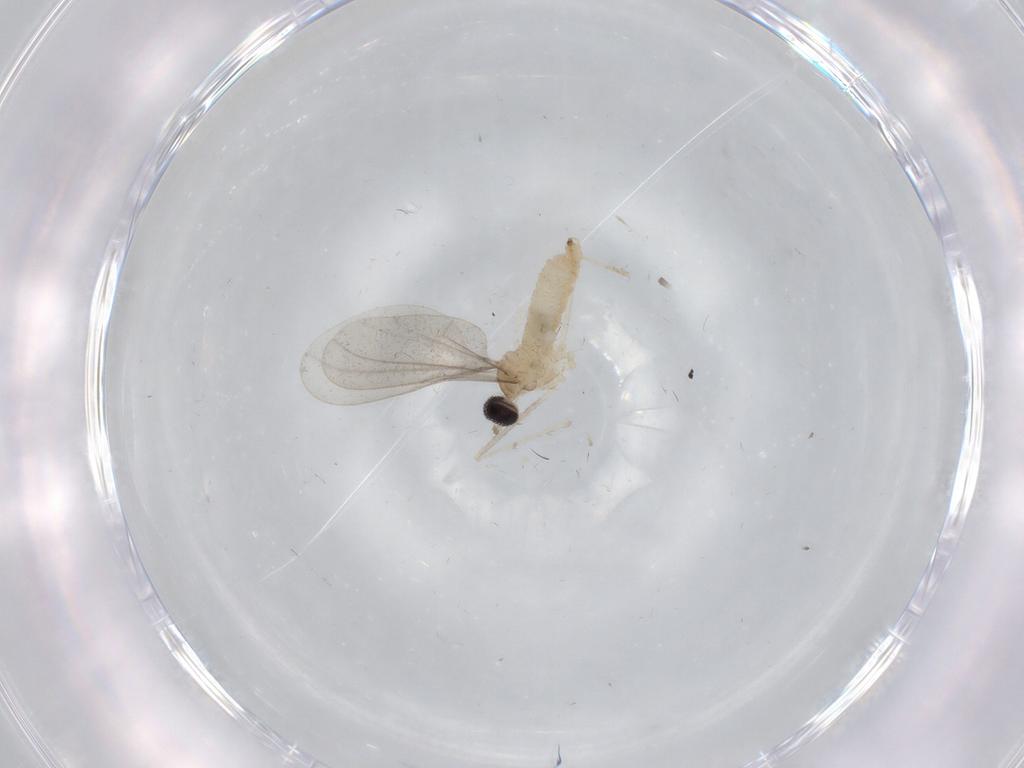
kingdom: Animalia
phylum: Arthropoda
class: Insecta
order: Diptera
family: Cecidomyiidae
